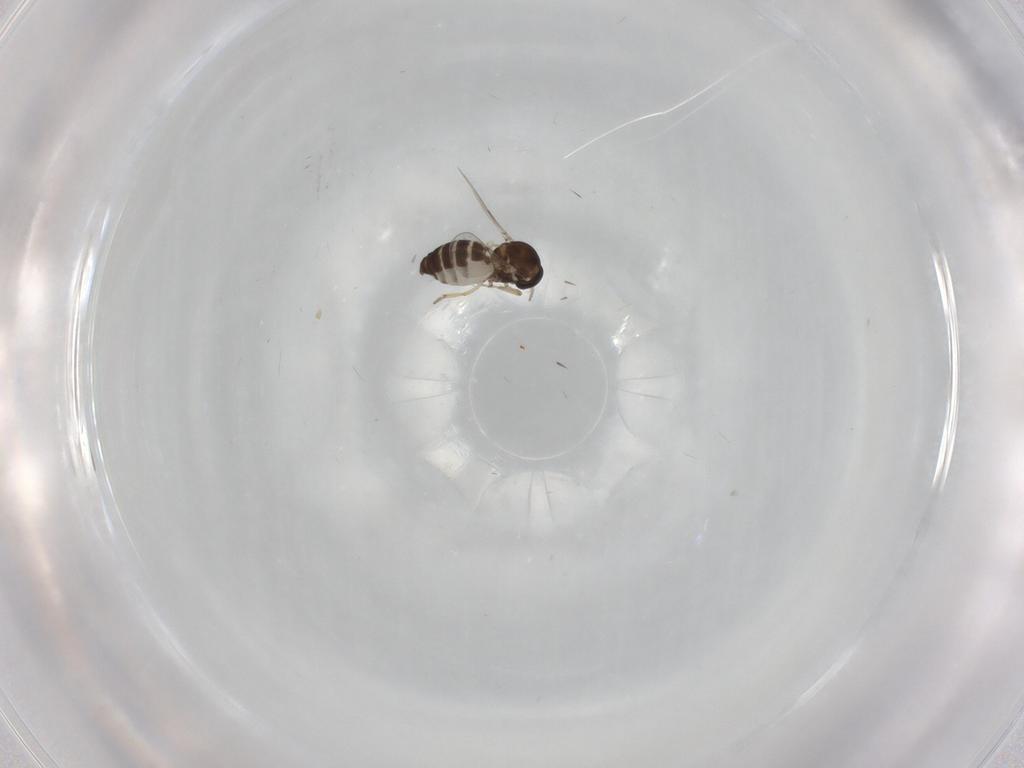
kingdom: Animalia
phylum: Arthropoda
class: Insecta
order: Diptera
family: Ceratopogonidae
